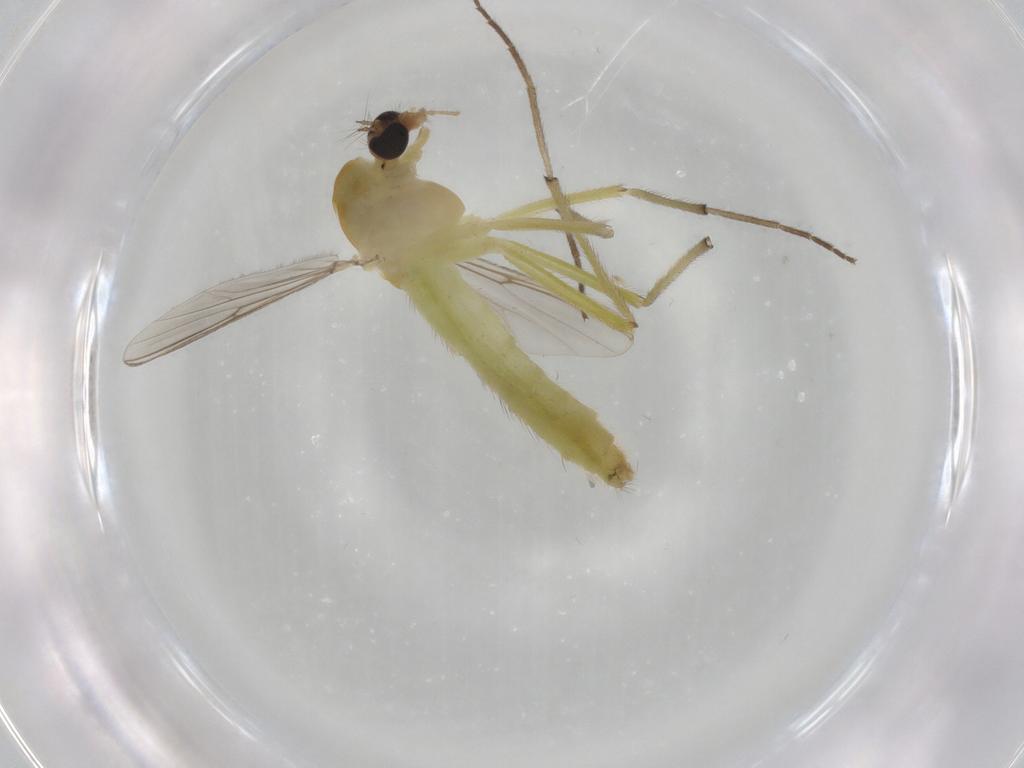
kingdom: Animalia
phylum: Arthropoda
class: Insecta
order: Diptera
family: Chironomidae
